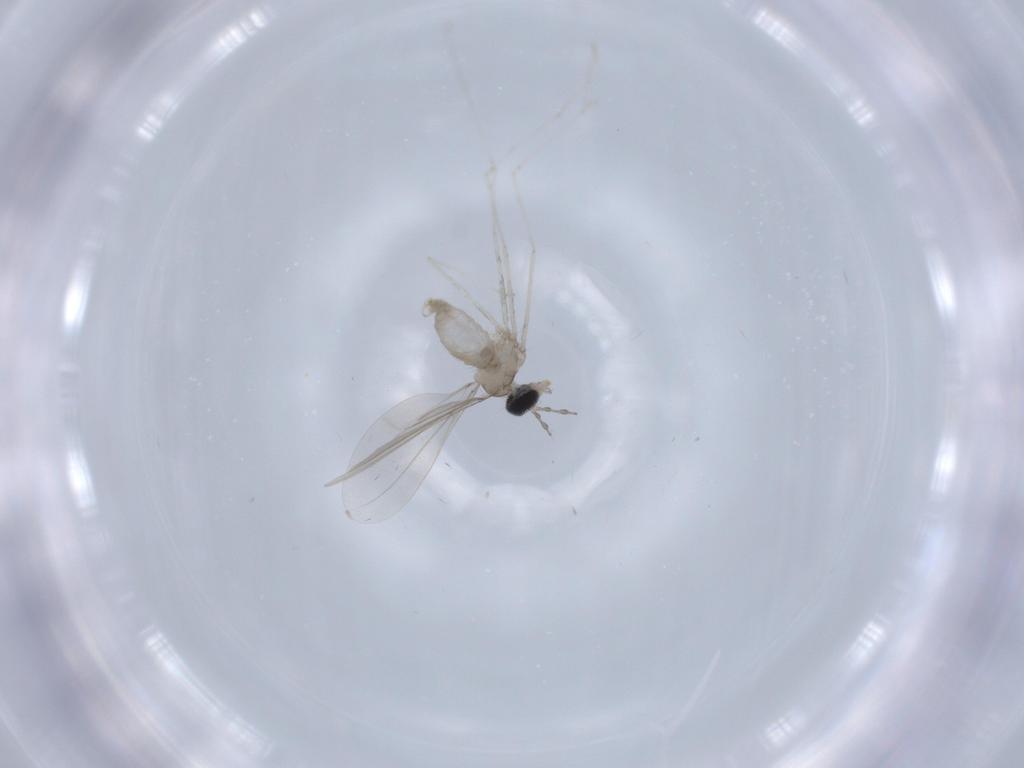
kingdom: Animalia
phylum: Arthropoda
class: Insecta
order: Diptera
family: Cecidomyiidae
